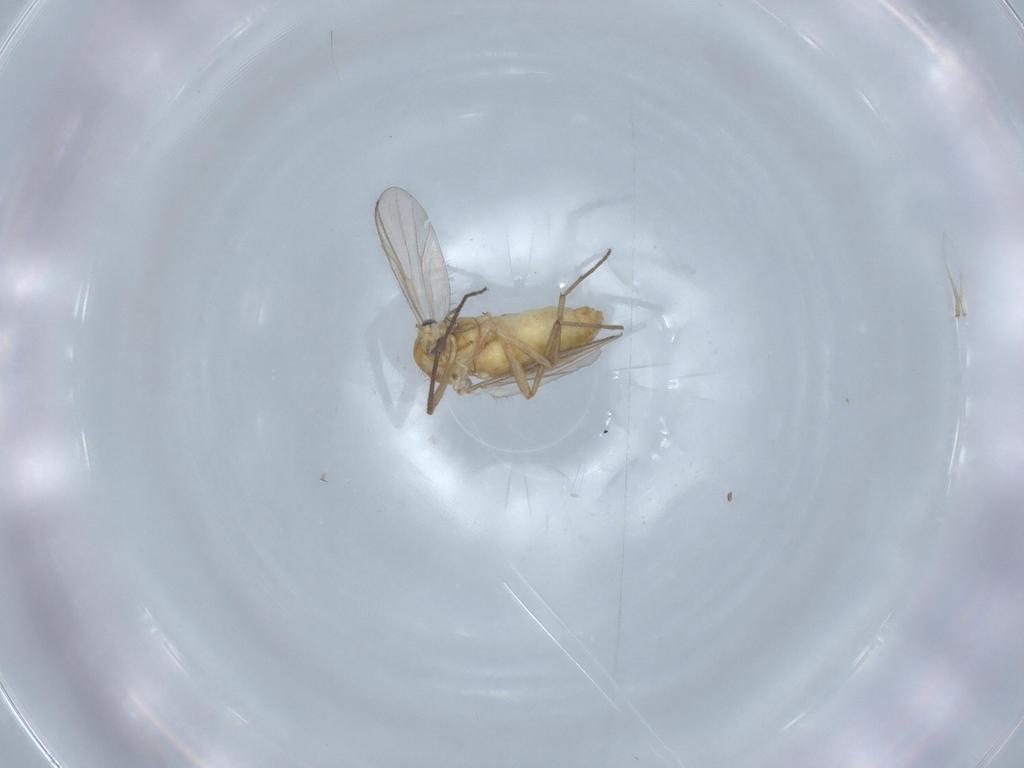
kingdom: Animalia
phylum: Arthropoda
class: Insecta
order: Diptera
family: Chironomidae
